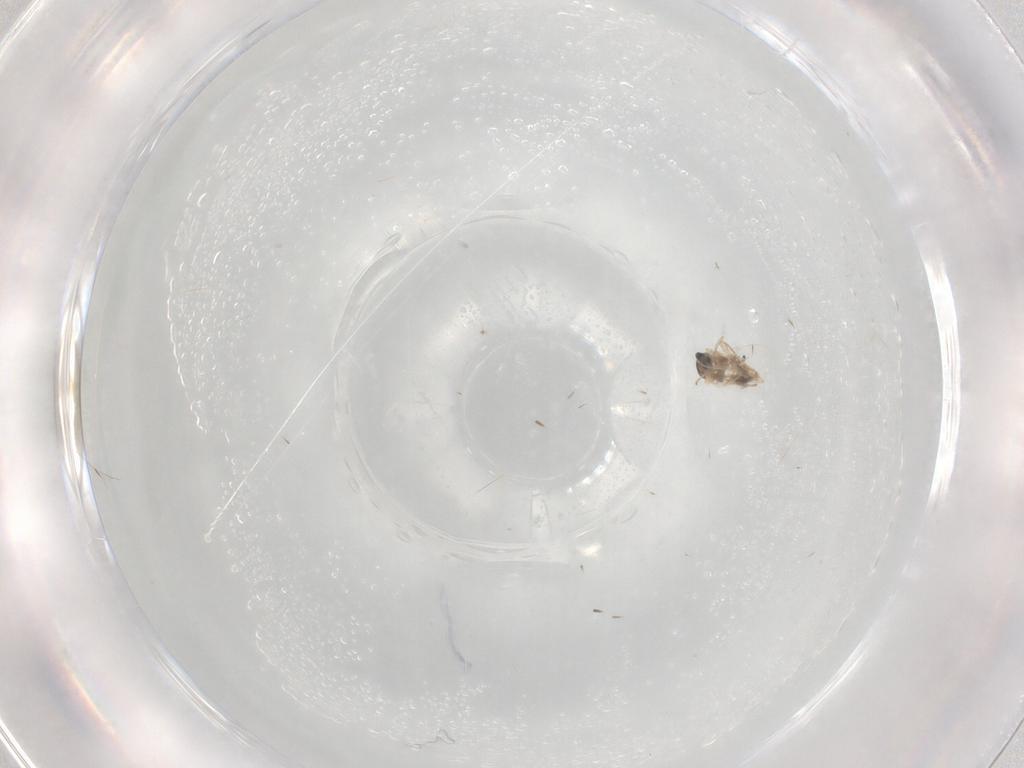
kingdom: Animalia
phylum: Arthropoda
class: Insecta
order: Diptera
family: Cecidomyiidae
